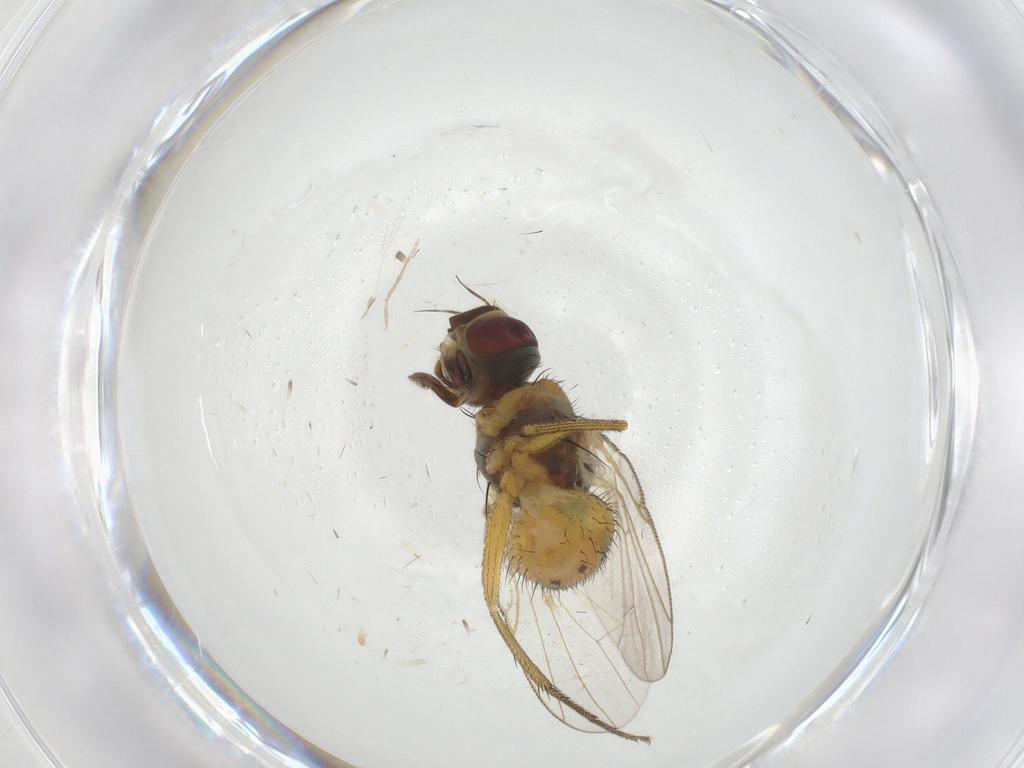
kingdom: Animalia
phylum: Arthropoda
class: Insecta
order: Diptera
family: Muscidae
